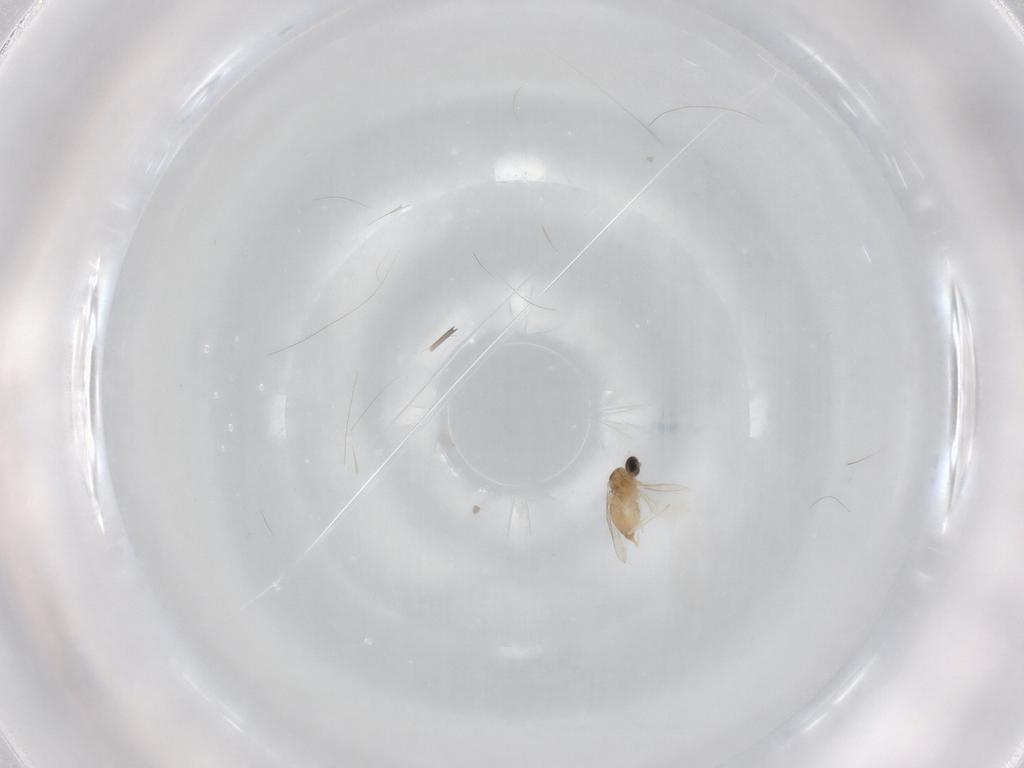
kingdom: Animalia
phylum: Arthropoda
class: Insecta
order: Diptera
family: Cecidomyiidae
